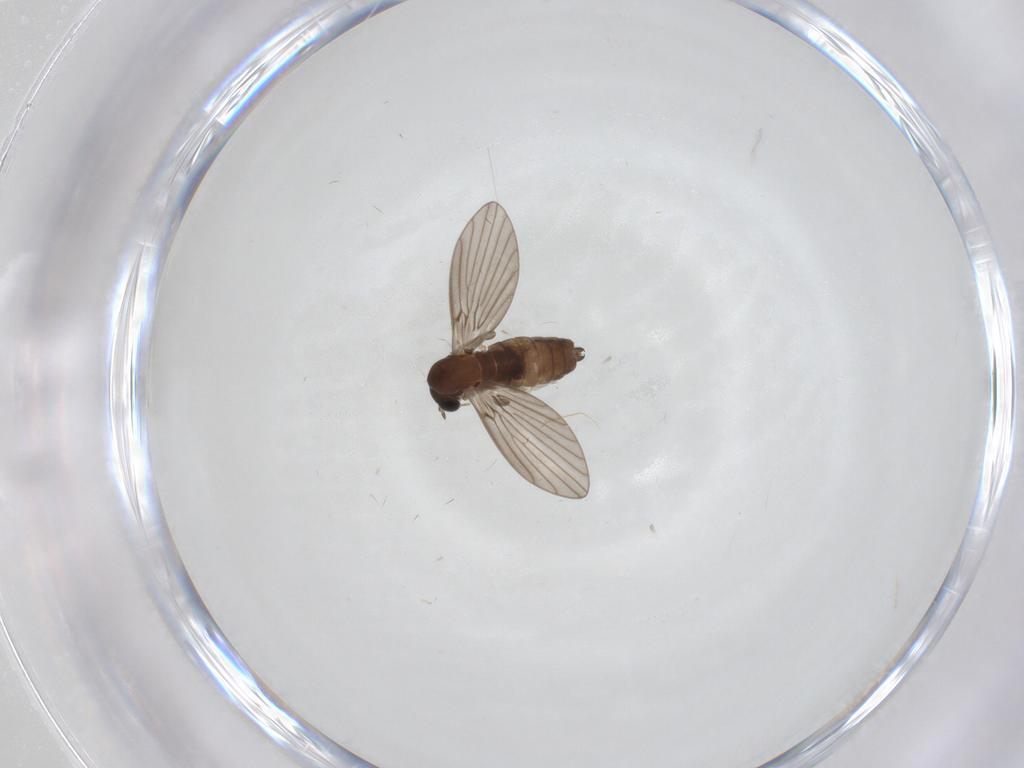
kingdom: Animalia
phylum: Arthropoda
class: Insecta
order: Diptera
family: Psychodidae
